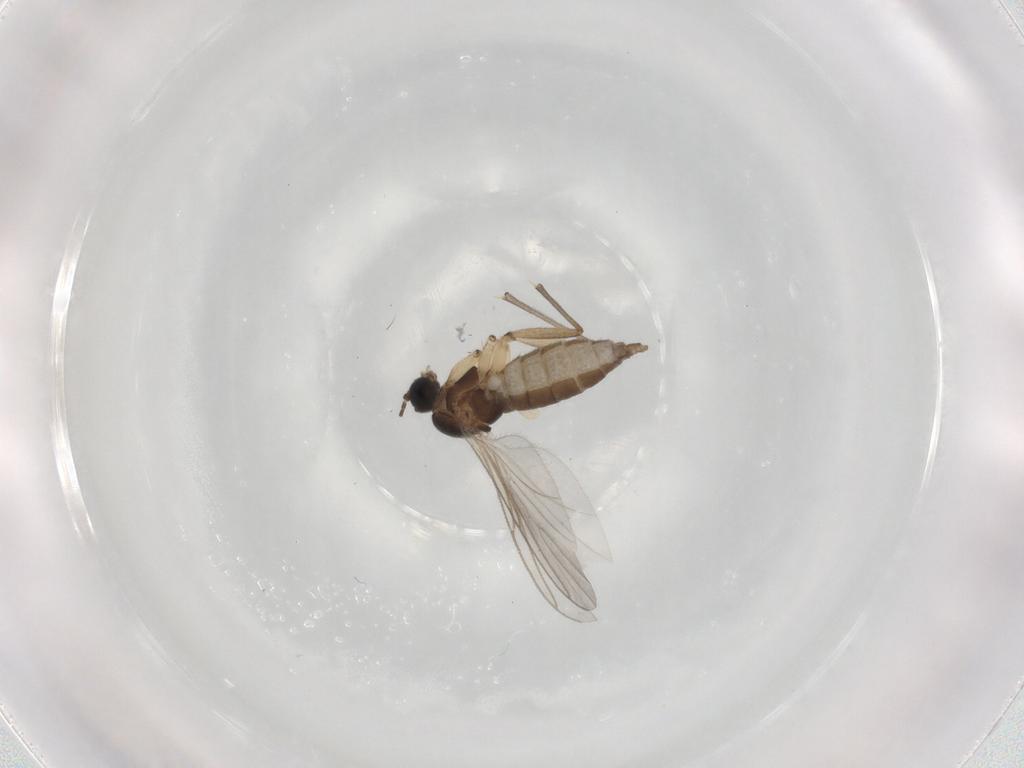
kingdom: Animalia
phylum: Arthropoda
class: Insecta
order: Diptera
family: Sciaridae
